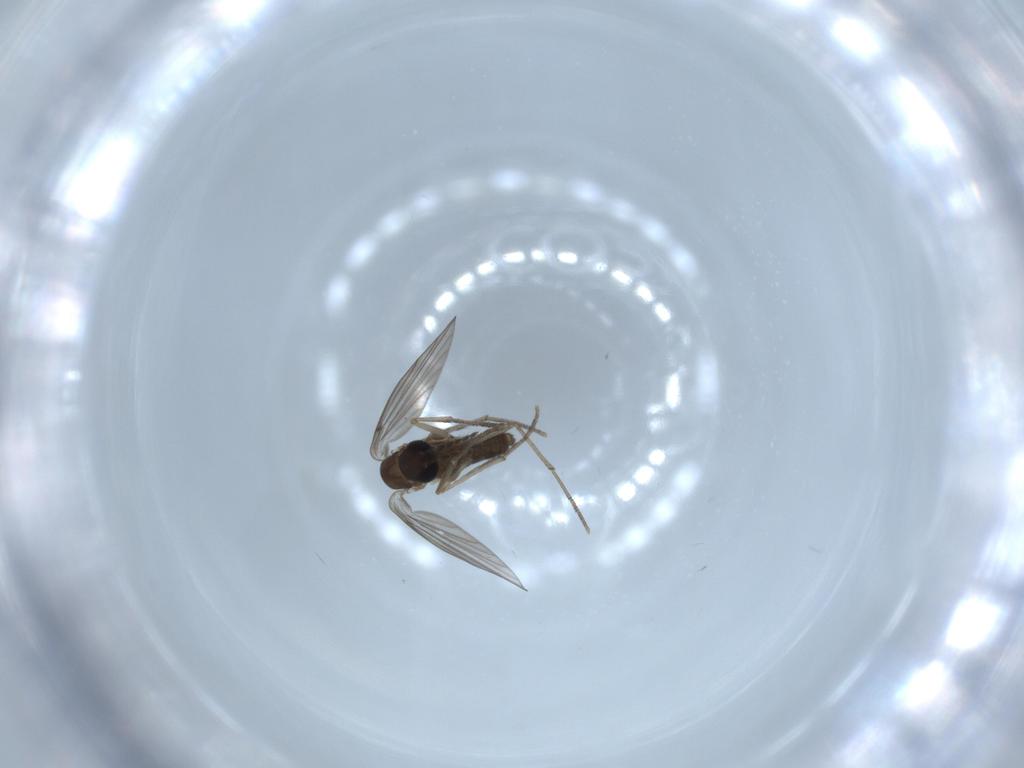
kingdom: Animalia
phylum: Arthropoda
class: Insecta
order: Diptera
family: Psychodidae
